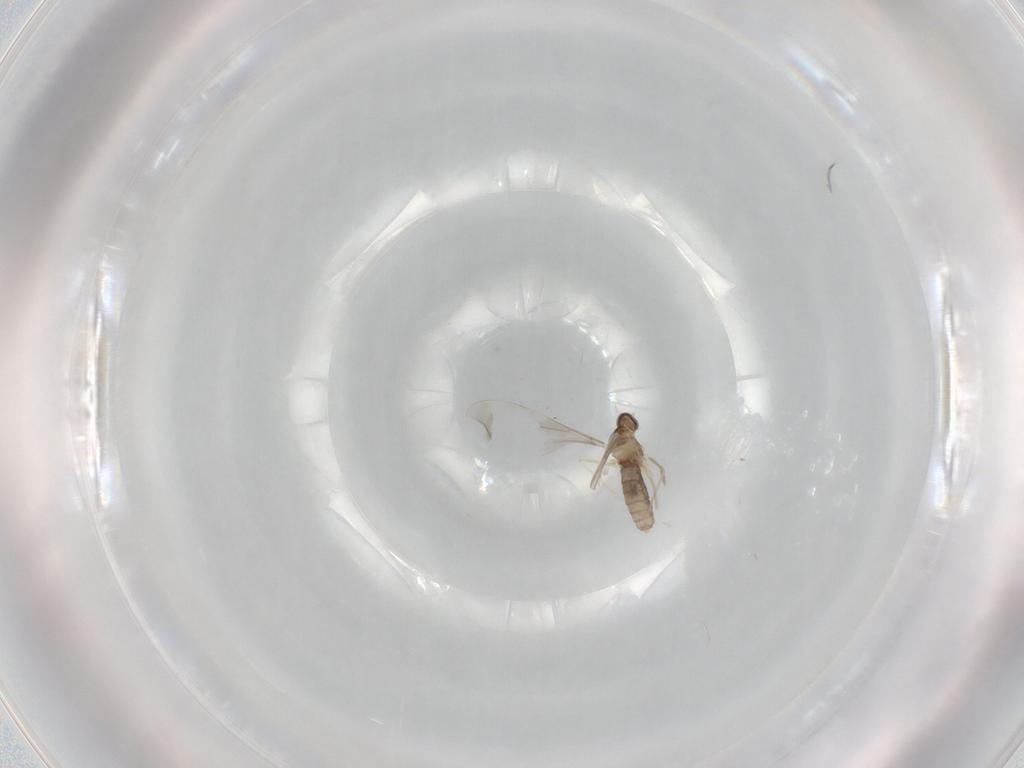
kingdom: Animalia
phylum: Arthropoda
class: Insecta
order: Diptera
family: Cecidomyiidae
